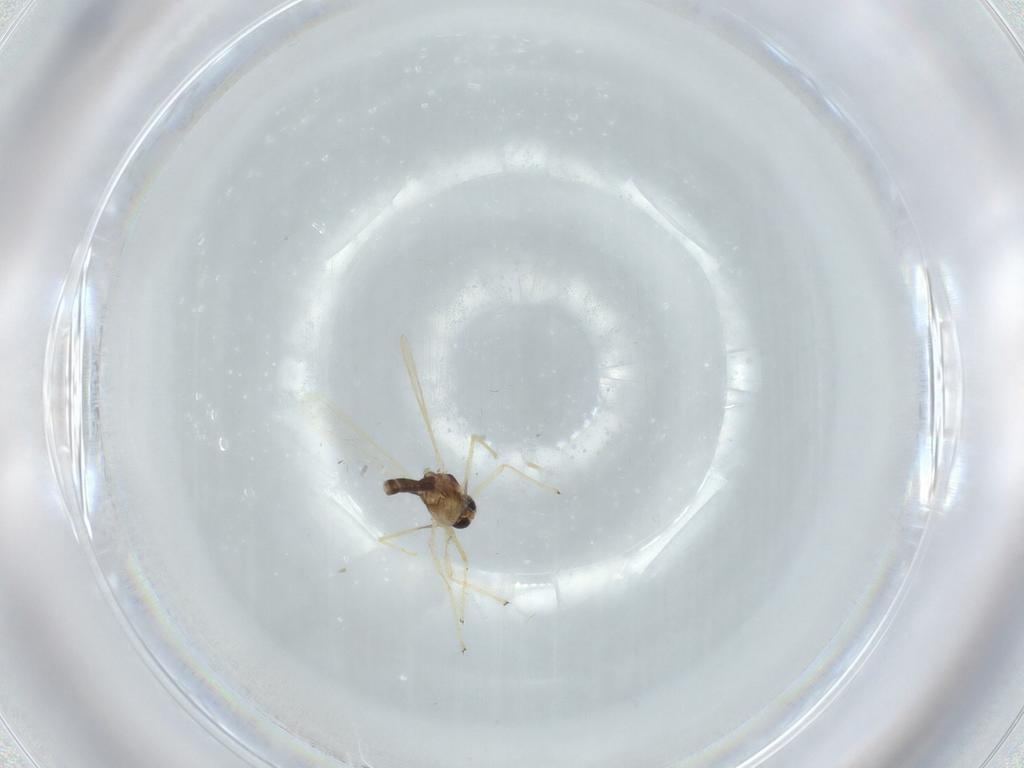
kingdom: Animalia
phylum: Arthropoda
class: Insecta
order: Diptera
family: Chironomidae
